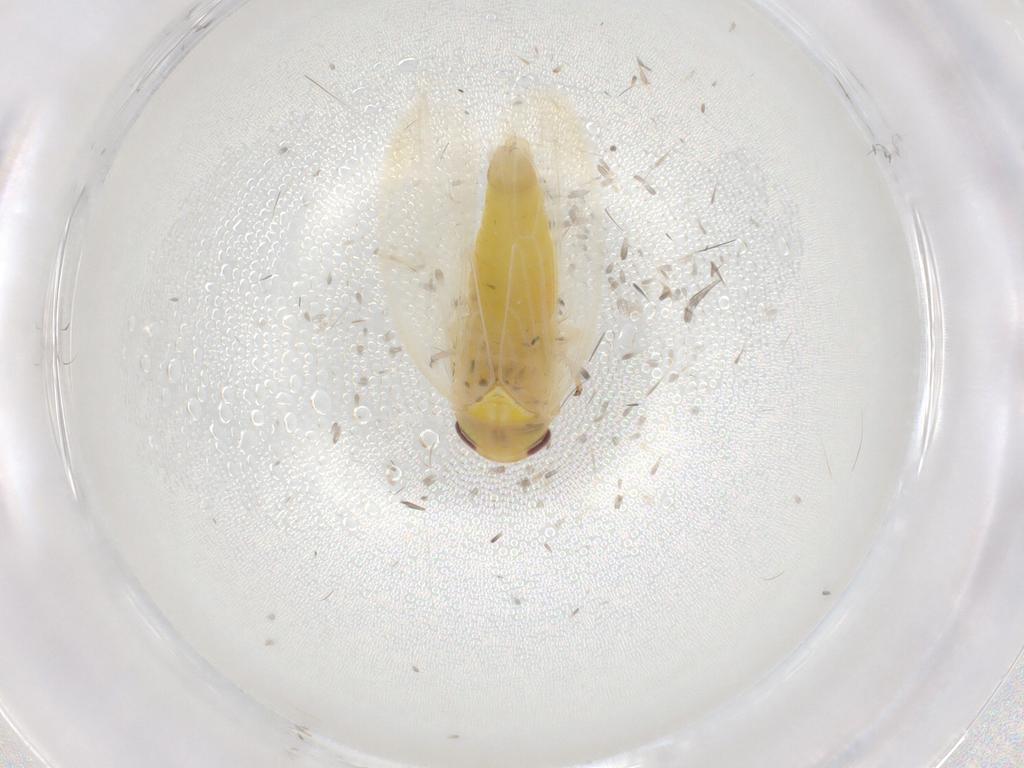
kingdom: Animalia
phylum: Arthropoda
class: Insecta
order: Hemiptera
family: Cicadellidae
